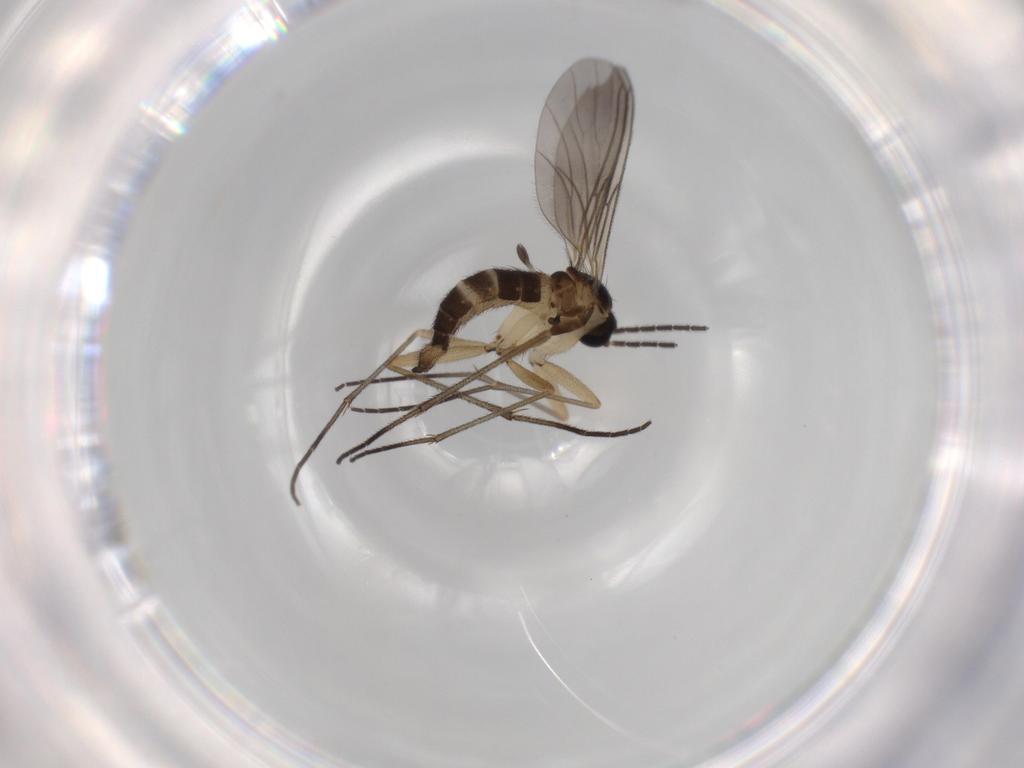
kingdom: Animalia
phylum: Arthropoda
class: Insecta
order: Diptera
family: Sciaridae
